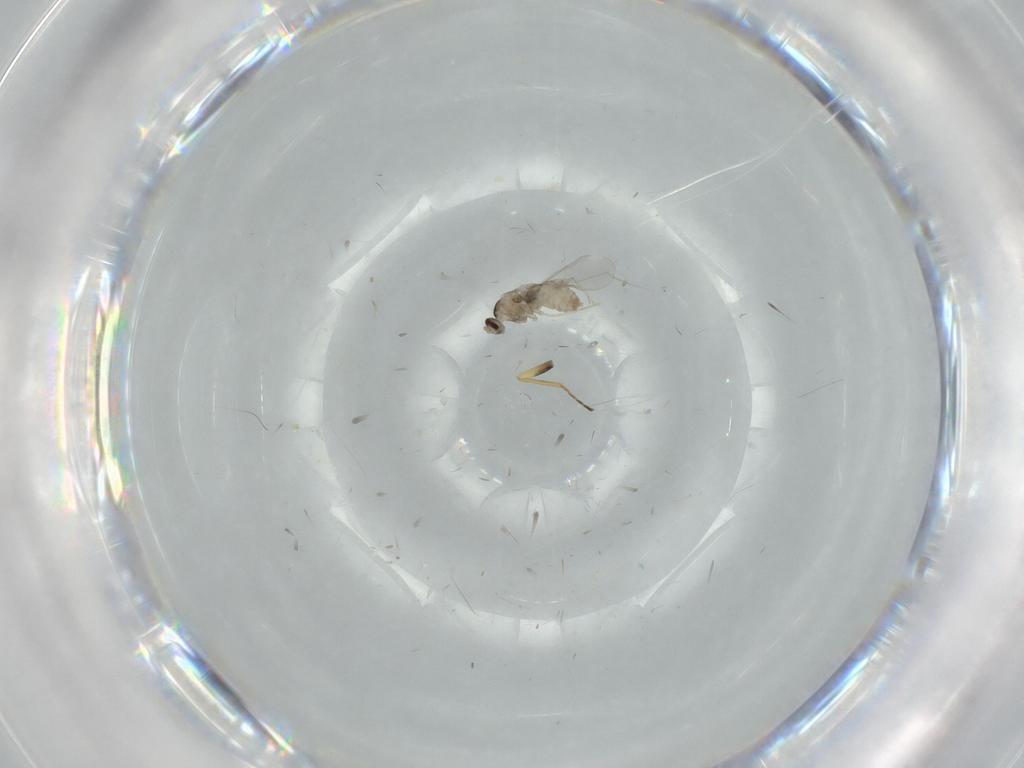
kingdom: Animalia
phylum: Arthropoda
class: Insecta
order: Diptera
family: Cecidomyiidae
